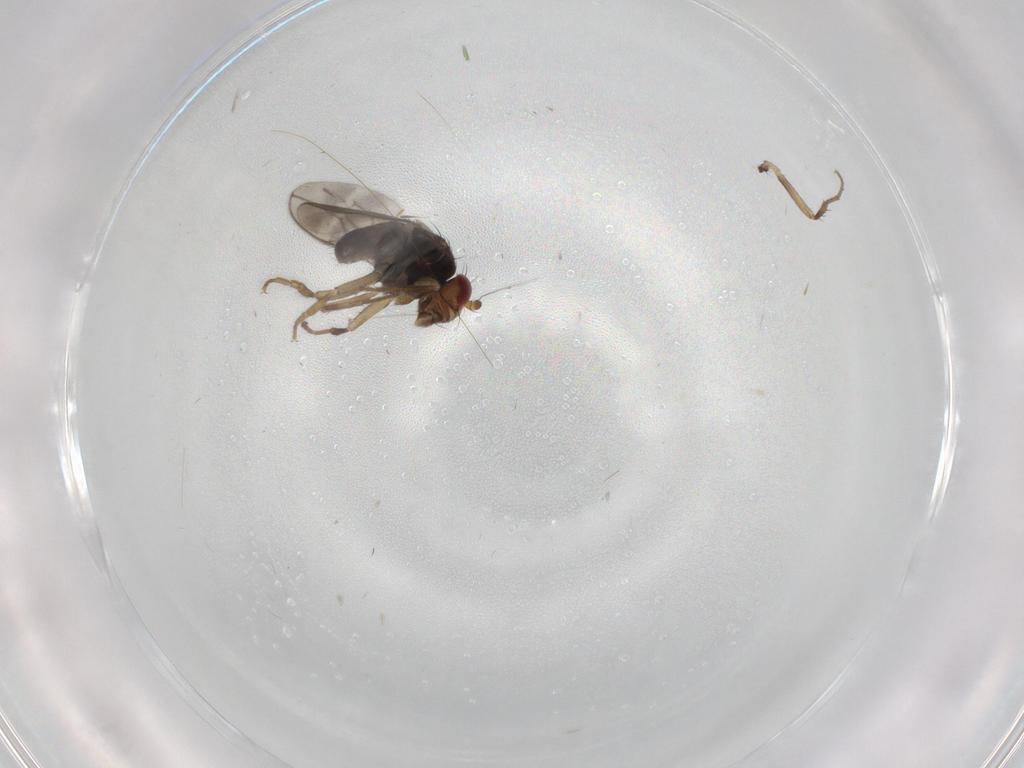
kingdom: Animalia
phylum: Arthropoda
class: Insecta
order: Diptera
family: Sphaeroceridae
